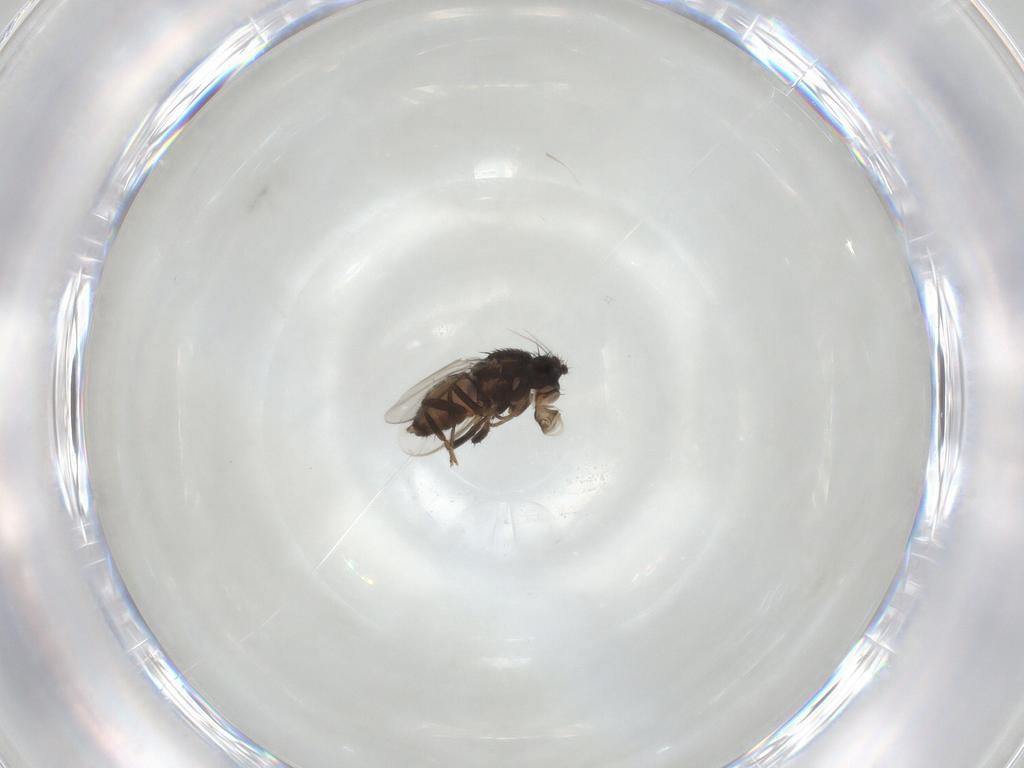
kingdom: Animalia
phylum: Arthropoda
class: Insecta
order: Diptera
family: Sphaeroceridae
